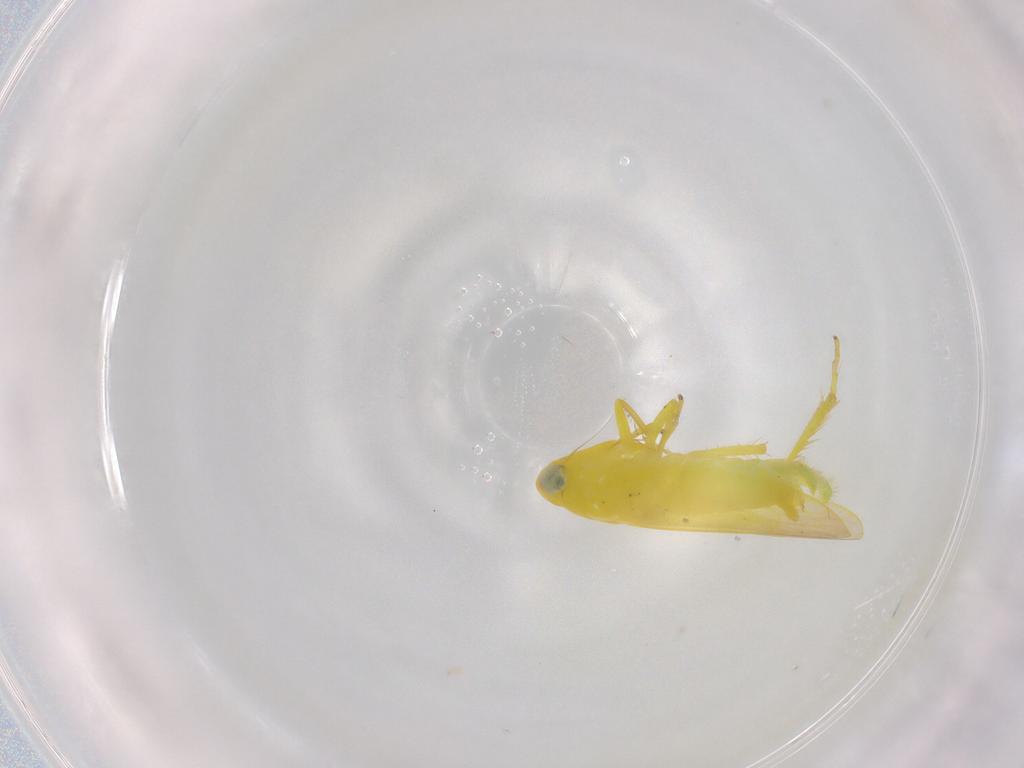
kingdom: Animalia
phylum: Arthropoda
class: Insecta
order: Hemiptera
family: Cicadellidae
